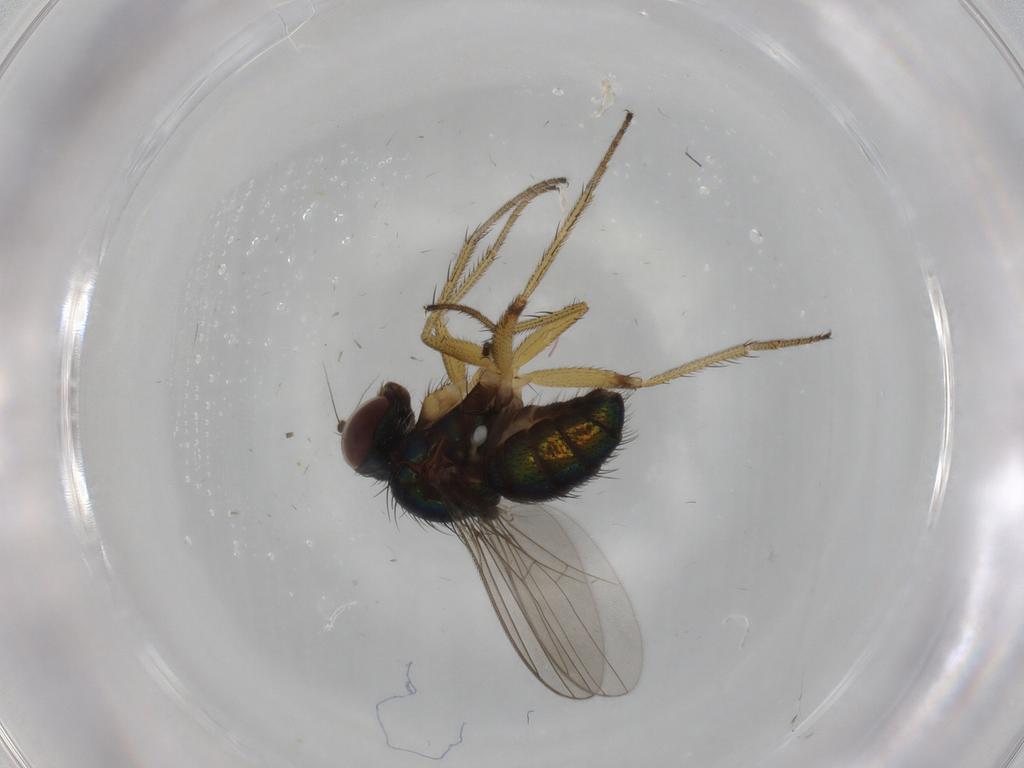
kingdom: Animalia
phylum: Arthropoda
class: Insecta
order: Diptera
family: Dolichopodidae
